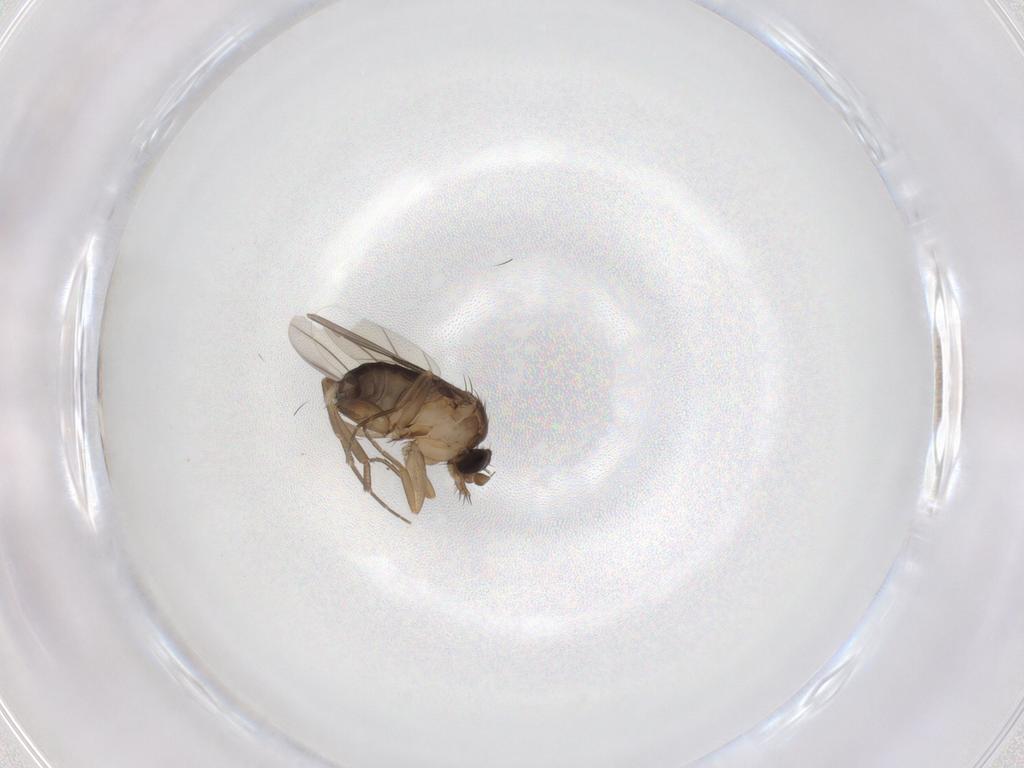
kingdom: Animalia
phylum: Arthropoda
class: Insecta
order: Diptera
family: Phoridae
